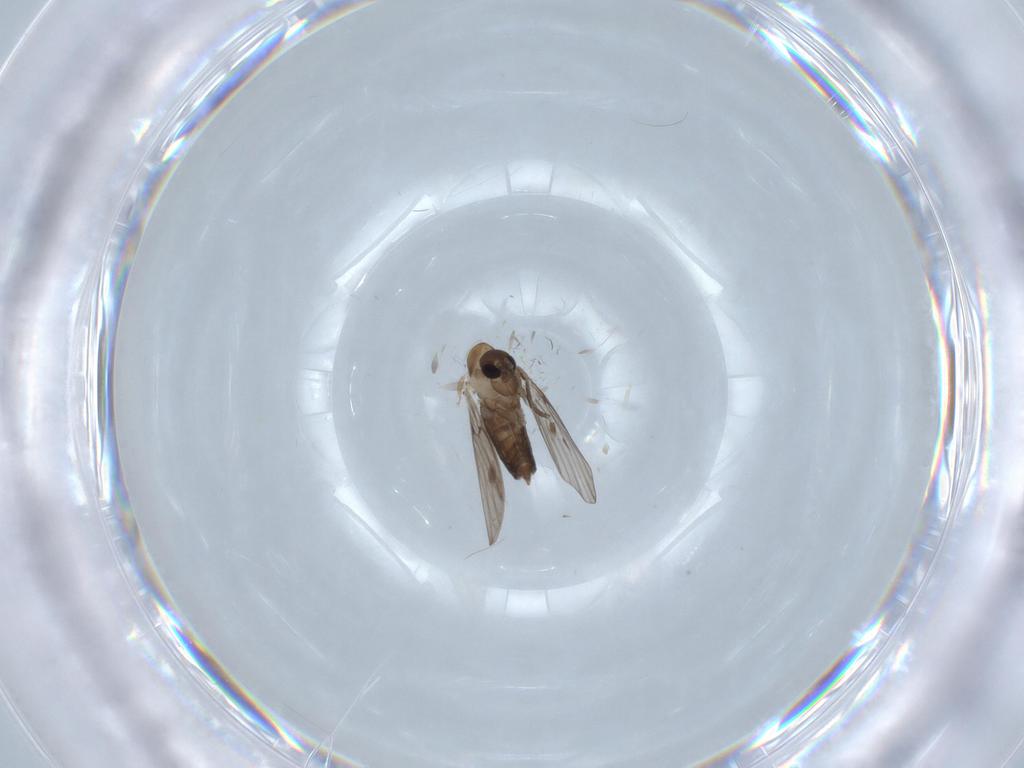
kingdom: Animalia
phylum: Arthropoda
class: Insecta
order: Diptera
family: Psychodidae
